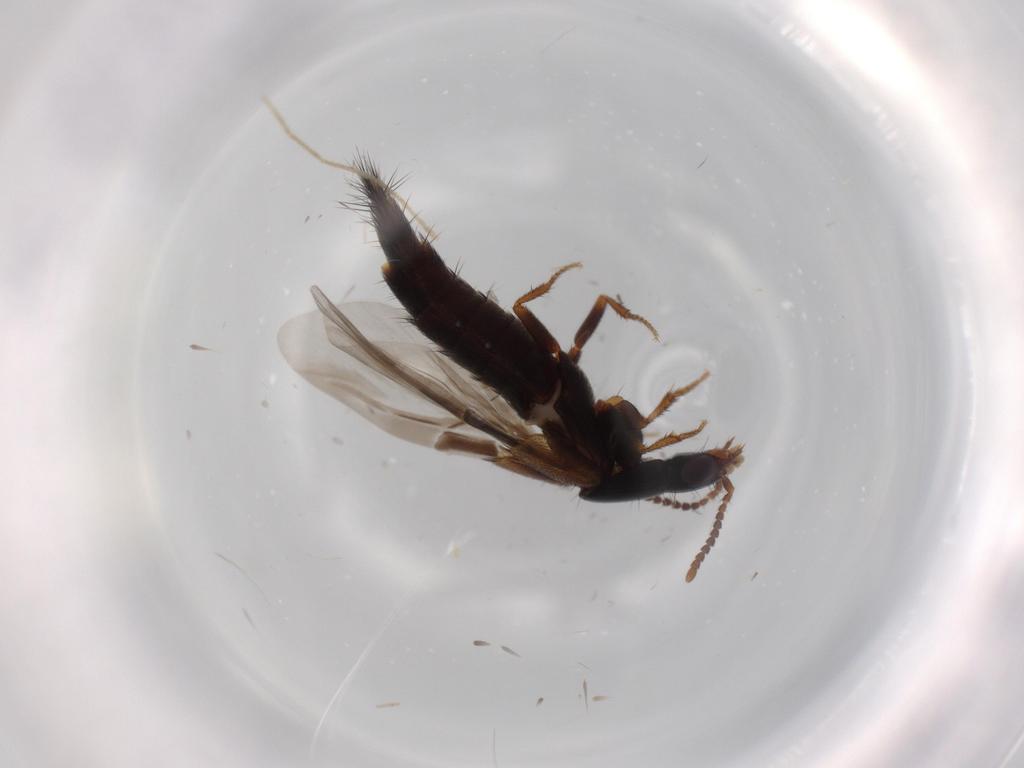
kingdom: Animalia
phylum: Arthropoda
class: Insecta
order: Coleoptera
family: Staphylinidae
